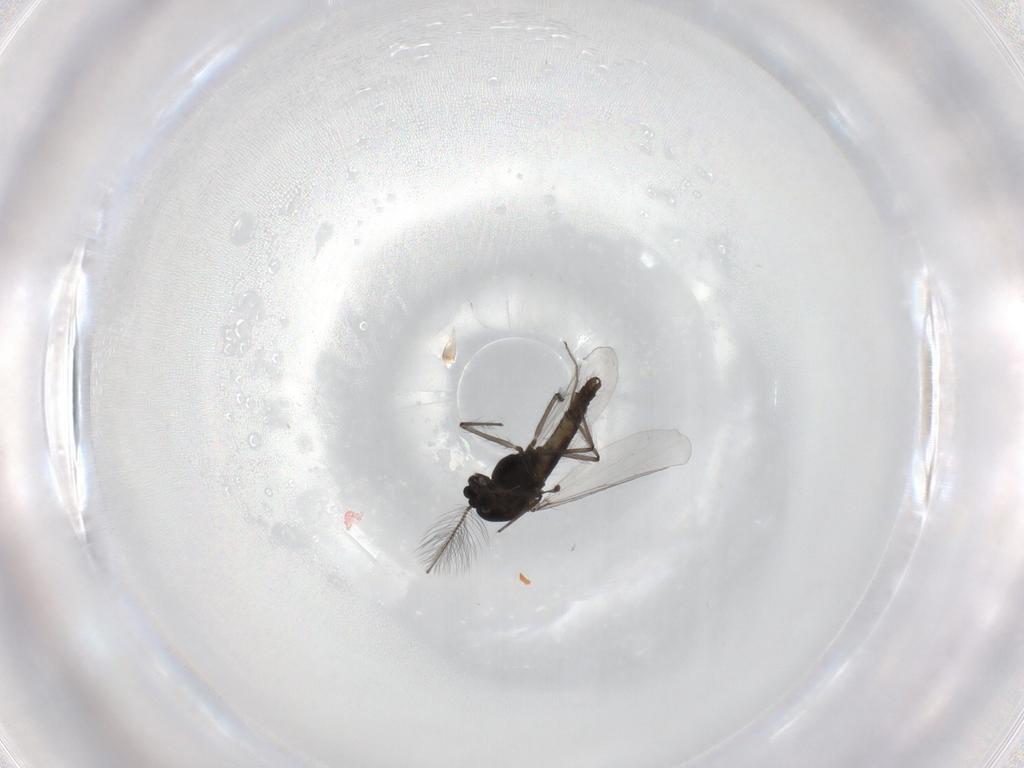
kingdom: Animalia
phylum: Arthropoda
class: Insecta
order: Diptera
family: Chironomidae
